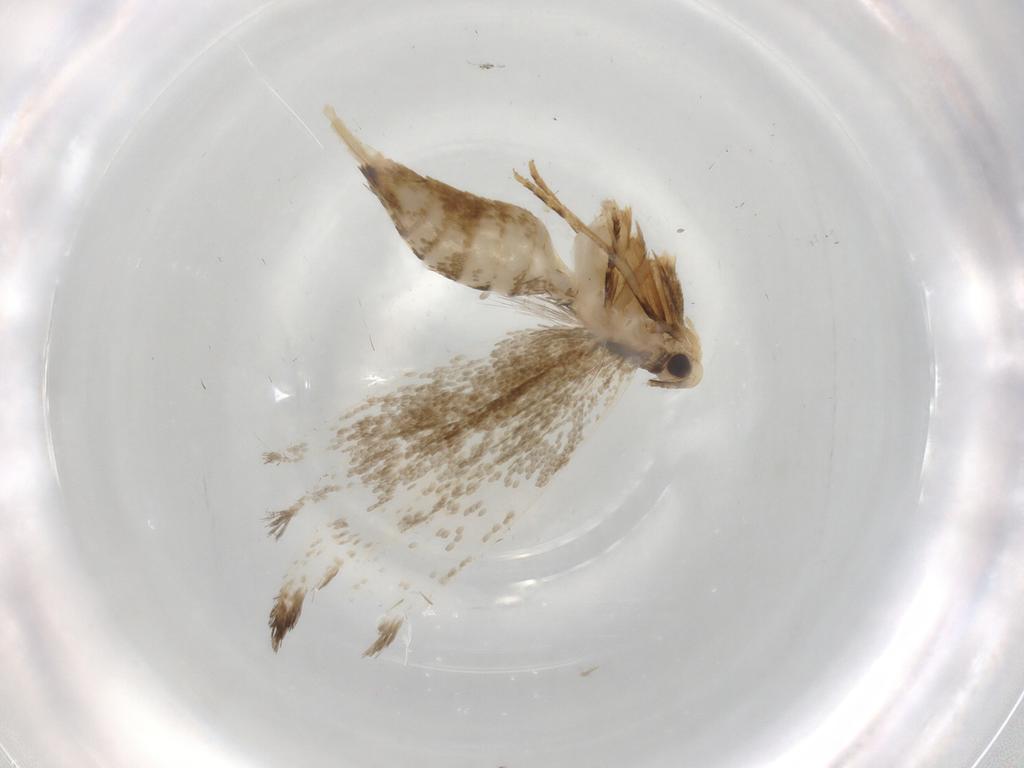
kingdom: Animalia
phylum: Arthropoda
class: Insecta
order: Lepidoptera
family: Tineidae
